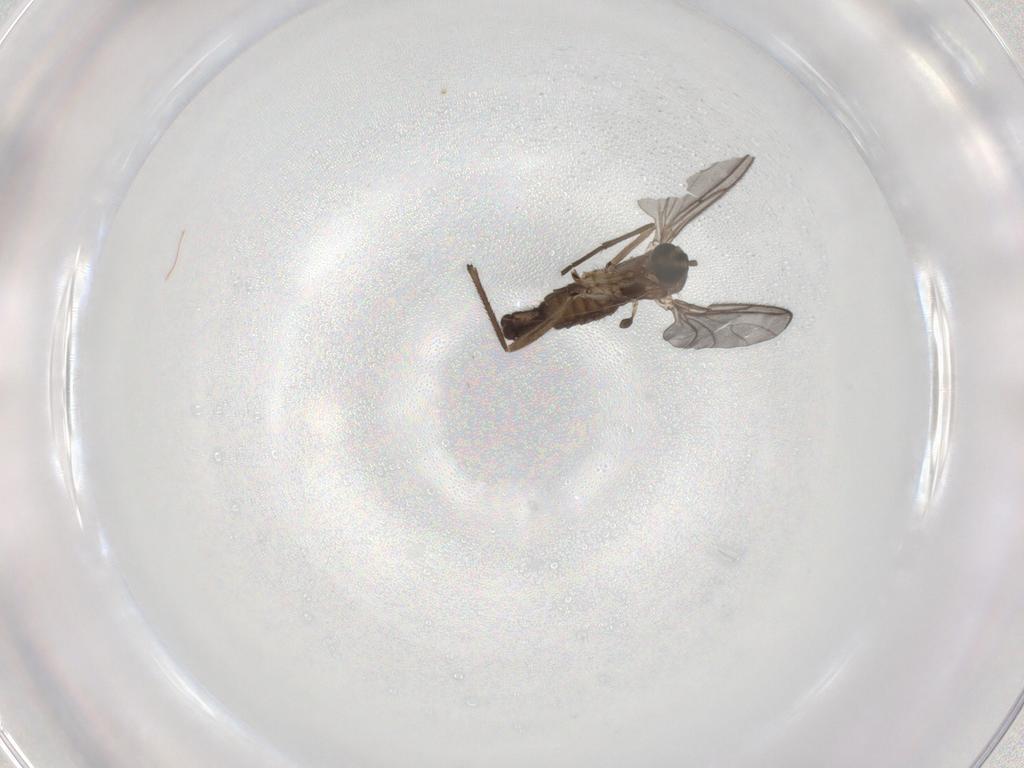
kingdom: Animalia
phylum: Arthropoda
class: Insecta
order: Diptera
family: Sciaridae
